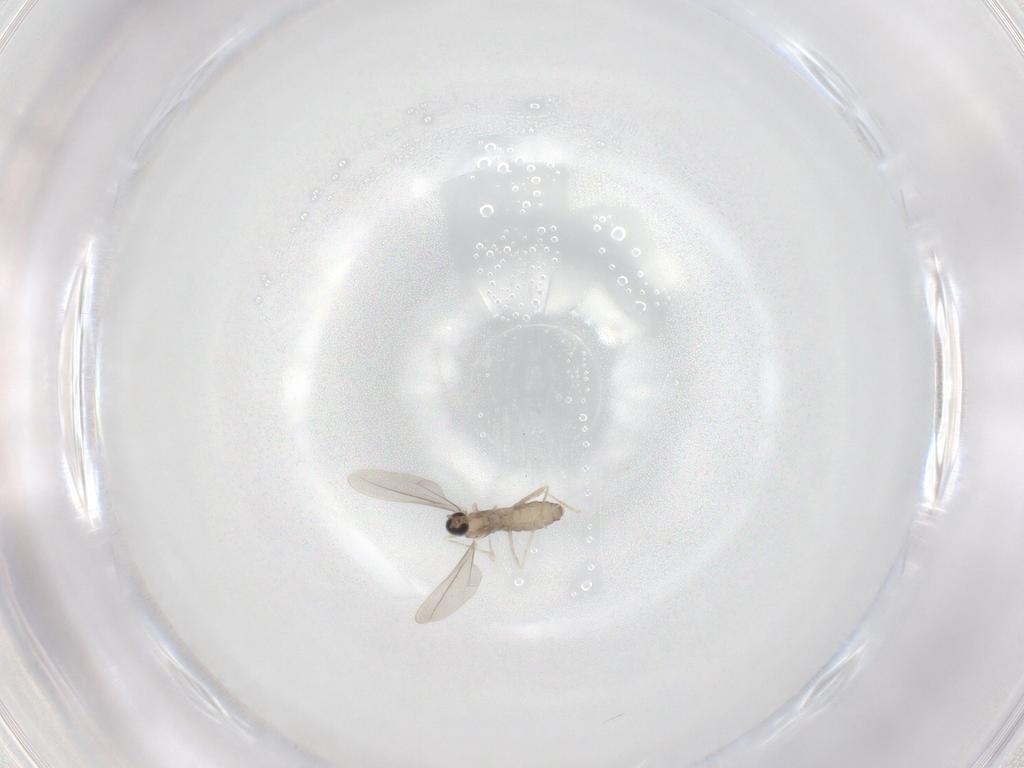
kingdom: Animalia
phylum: Arthropoda
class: Insecta
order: Diptera
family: Cecidomyiidae
